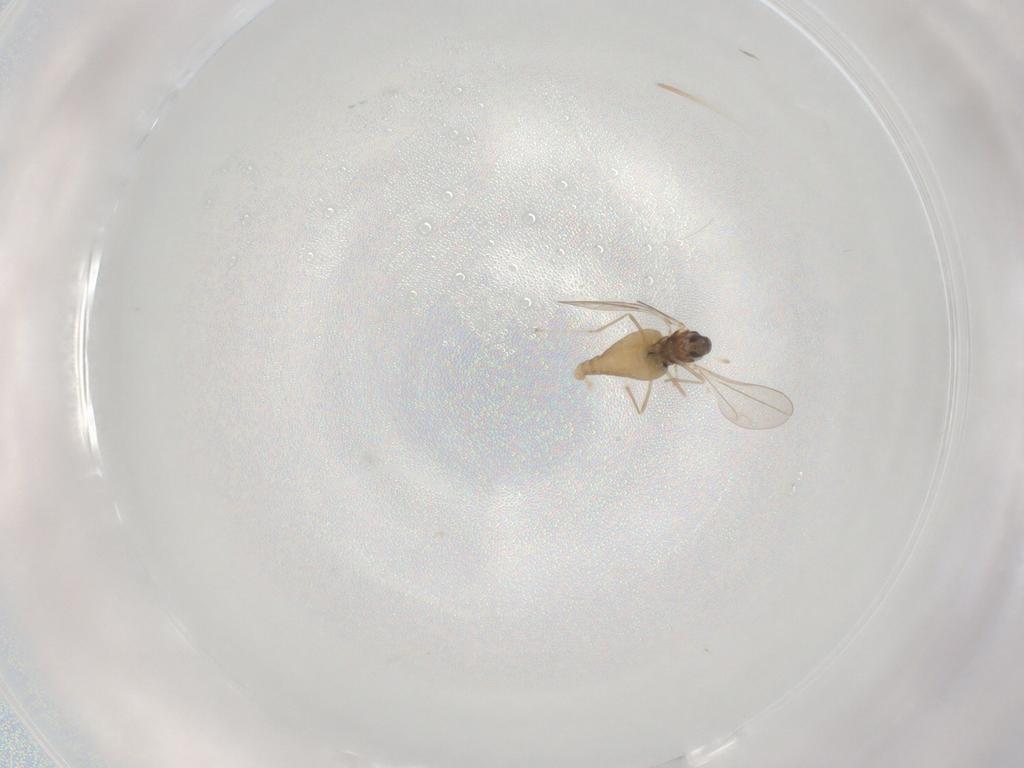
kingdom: Animalia
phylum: Arthropoda
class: Insecta
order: Diptera
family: Cecidomyiidae
